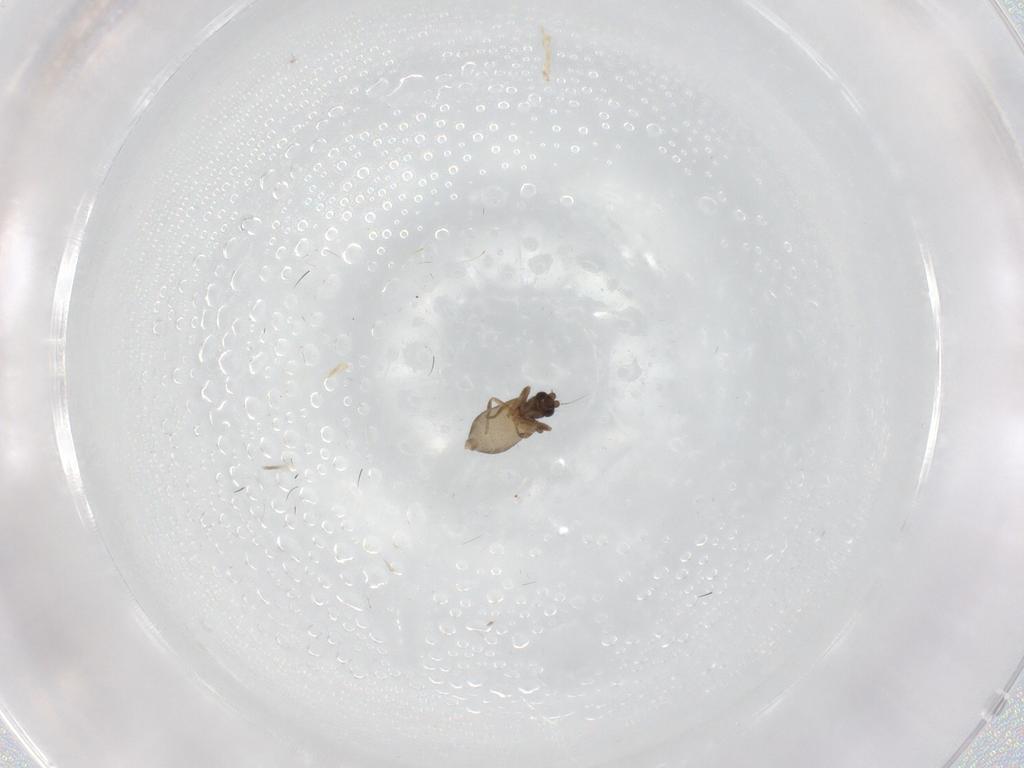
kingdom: Animalia
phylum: Arthropoda
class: Insecta
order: Diptera
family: Phoridae
